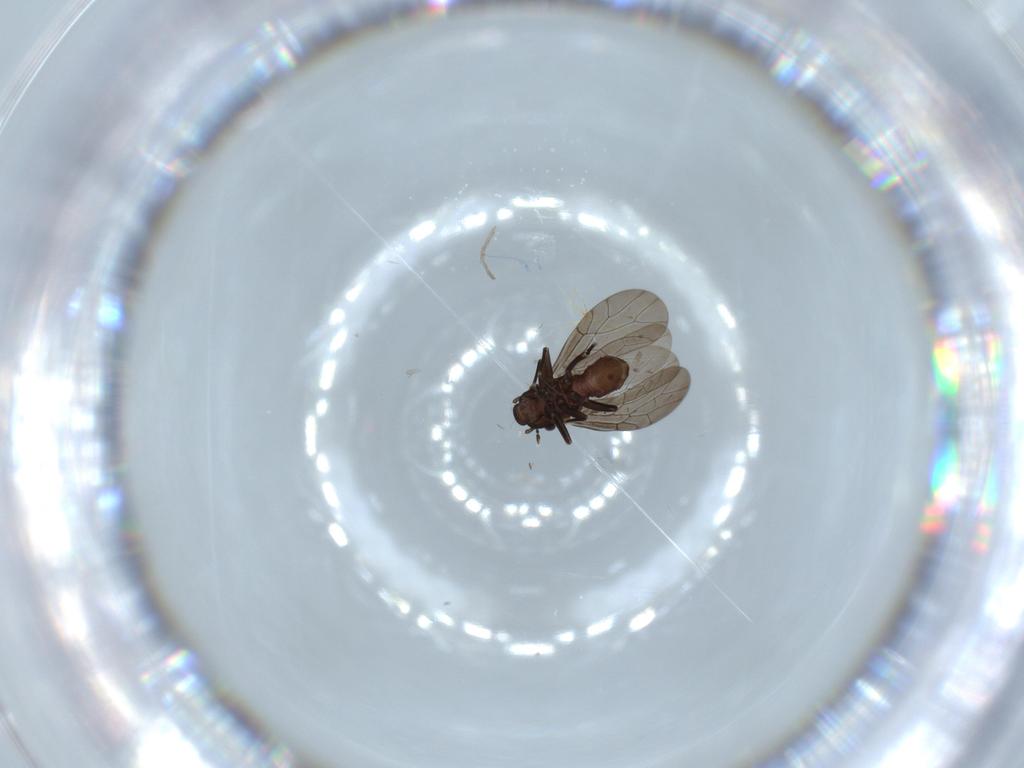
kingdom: Animalia
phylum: Arthropoda
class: Insecta
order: Psocodea
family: Lepidopsocidae
